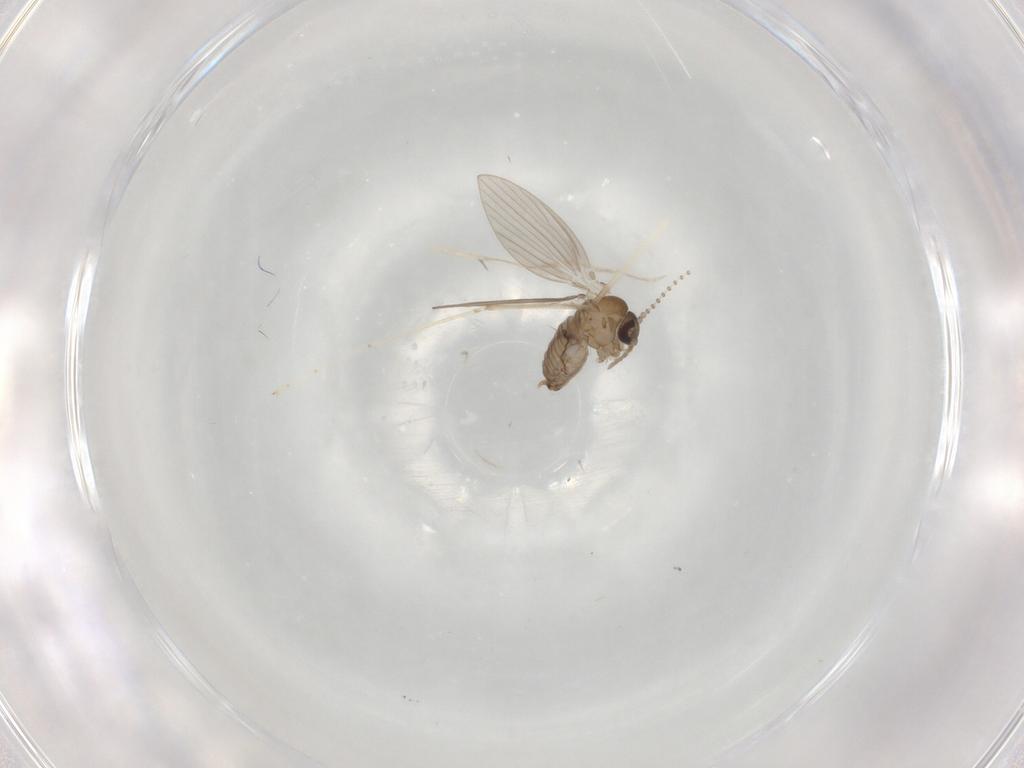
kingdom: Animalia
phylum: Arthropoda
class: Insecta
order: Diptera
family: Psychodidae
